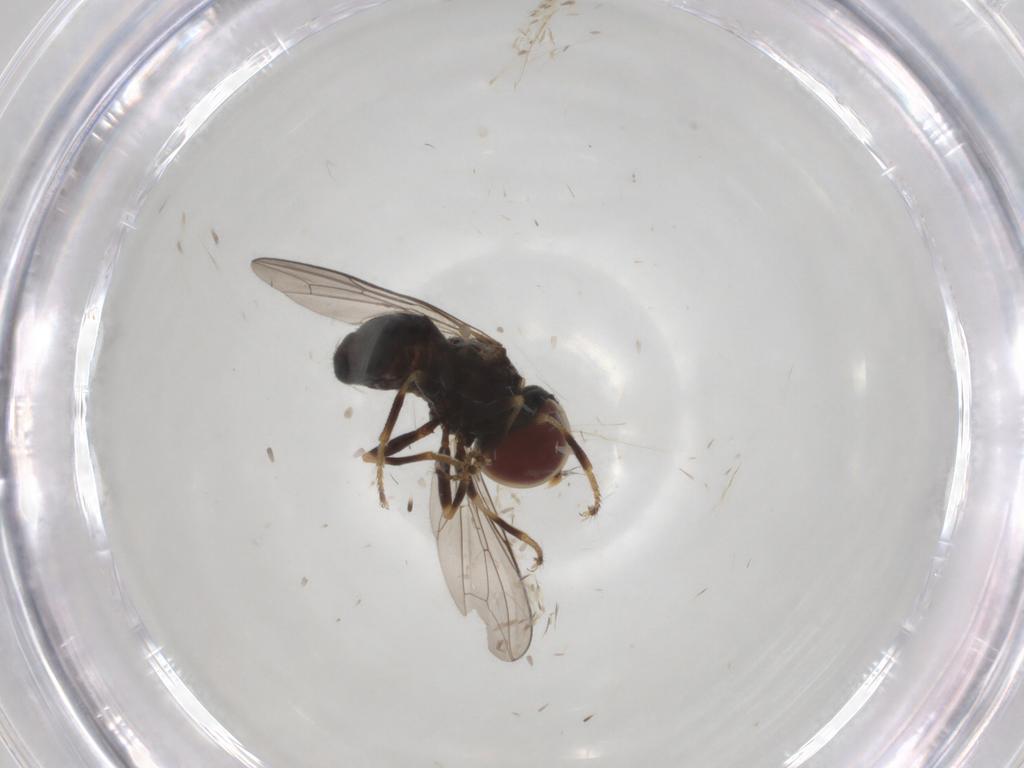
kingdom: Animalia
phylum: Arthropoda
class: Insecta
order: Diptera
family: Pipunculidae
